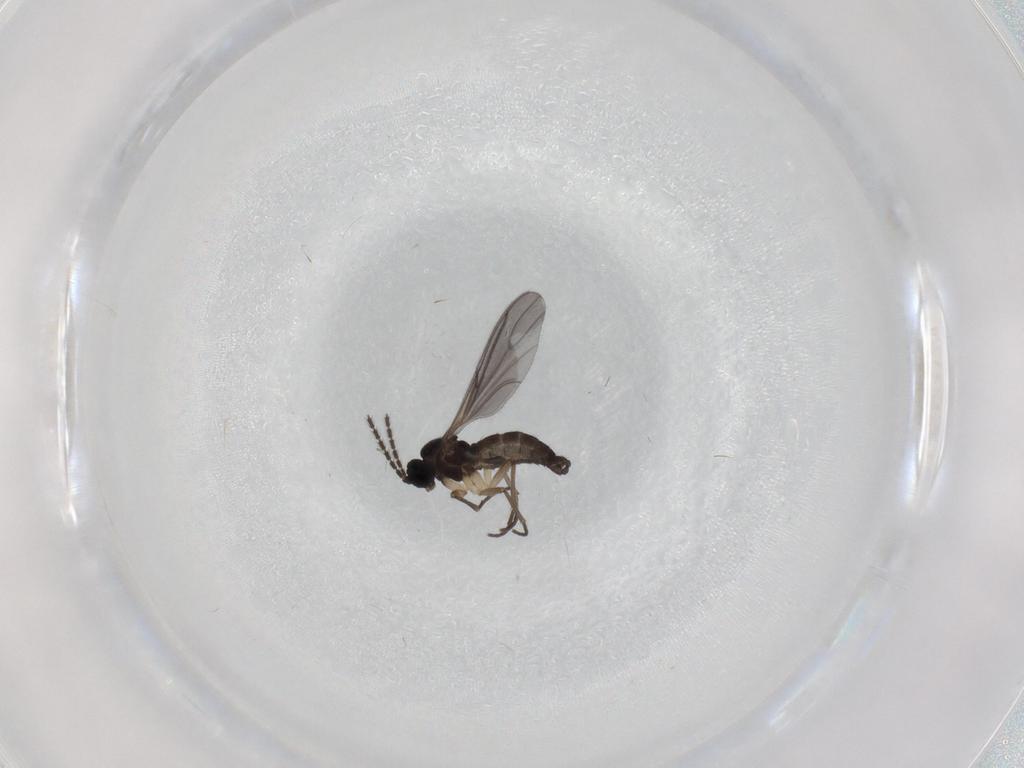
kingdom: Animalia
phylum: Arthropoda
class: Insecta
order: Diptera
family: Sciaridae
